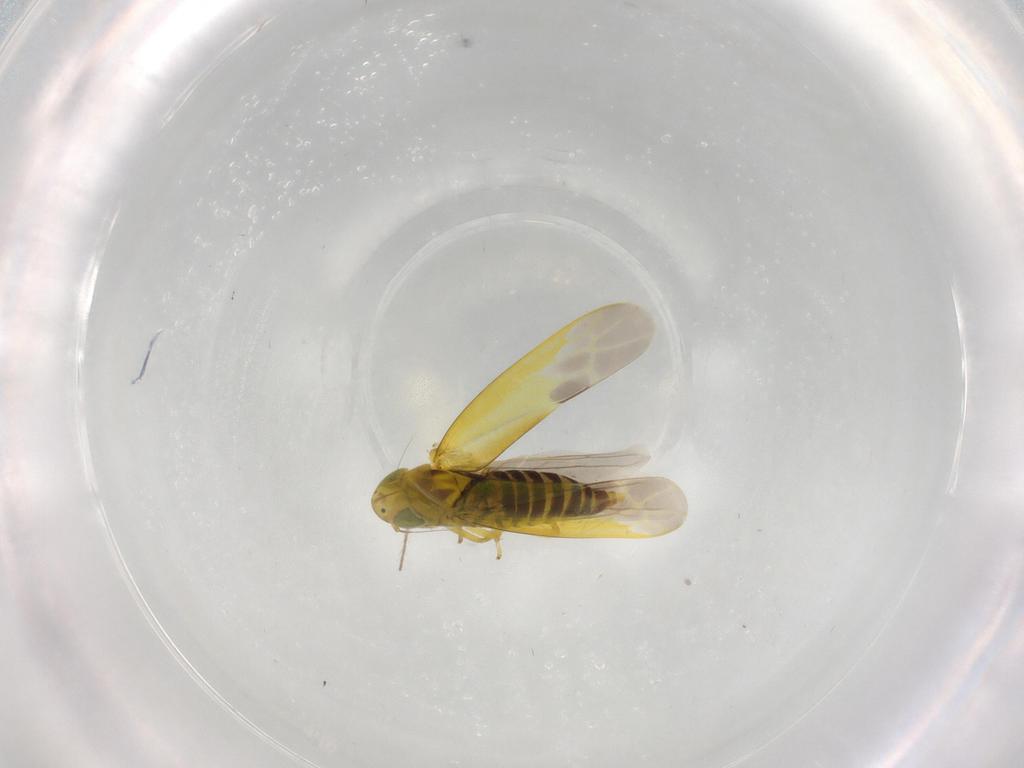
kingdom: Animalia
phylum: Arthropoda
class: Insecta
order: Hemiptera
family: Cicadellidae
